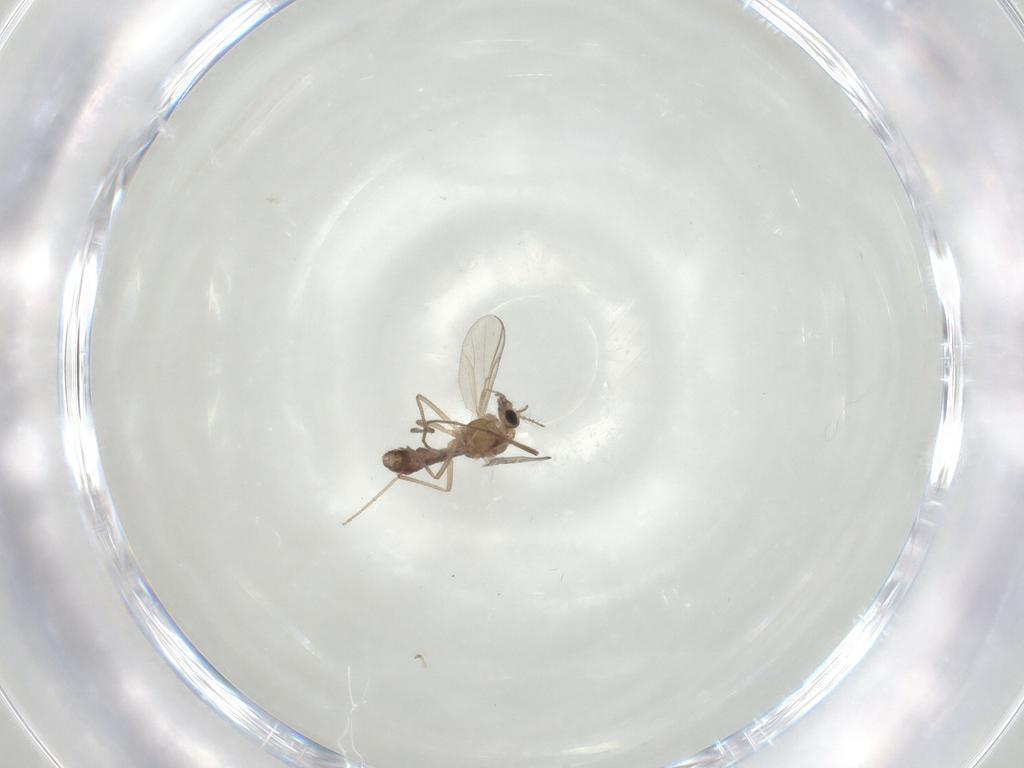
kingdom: Animalia
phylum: Arthropoda
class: Insecta
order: Diptera
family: Chironomidae
